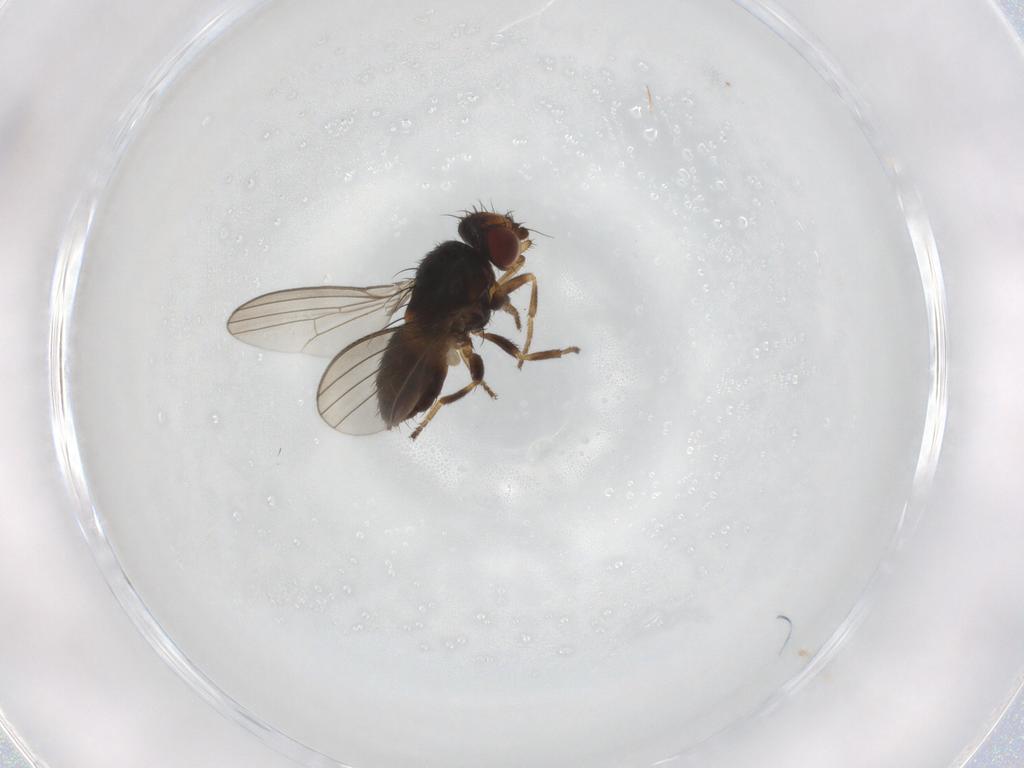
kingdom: Animalia
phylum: Arthropoda
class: Insecta
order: Diptera
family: Milichiidae
